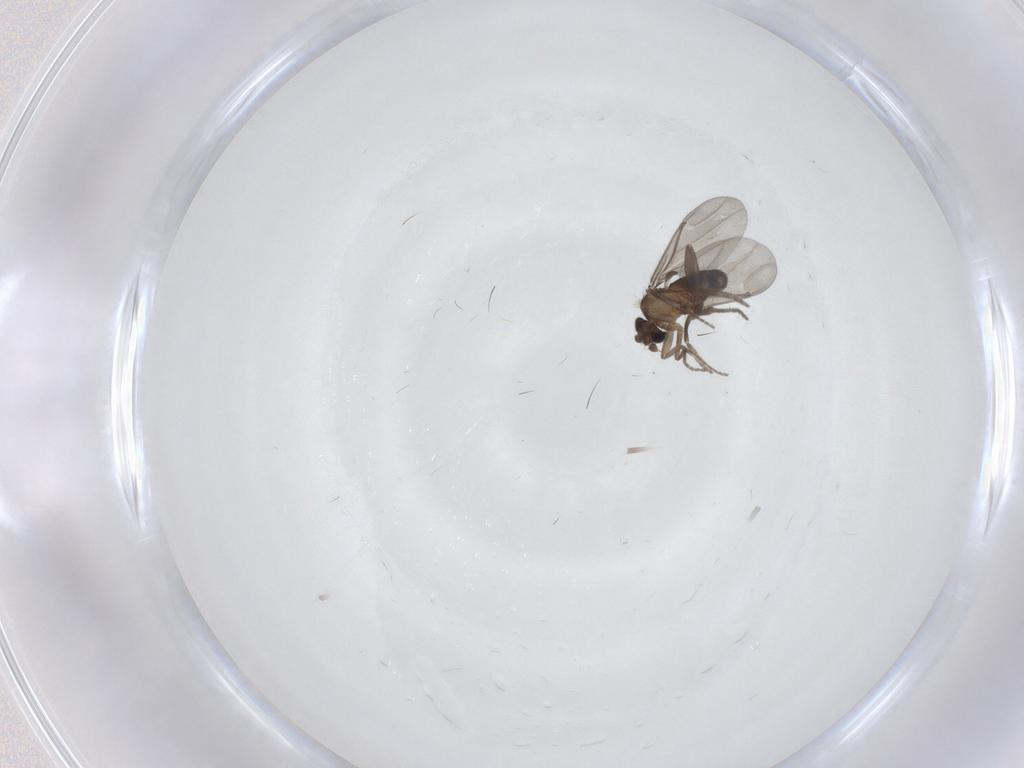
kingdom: Animalia
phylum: Arthropoda
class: Insecta
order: Diptera
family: Phoridae
